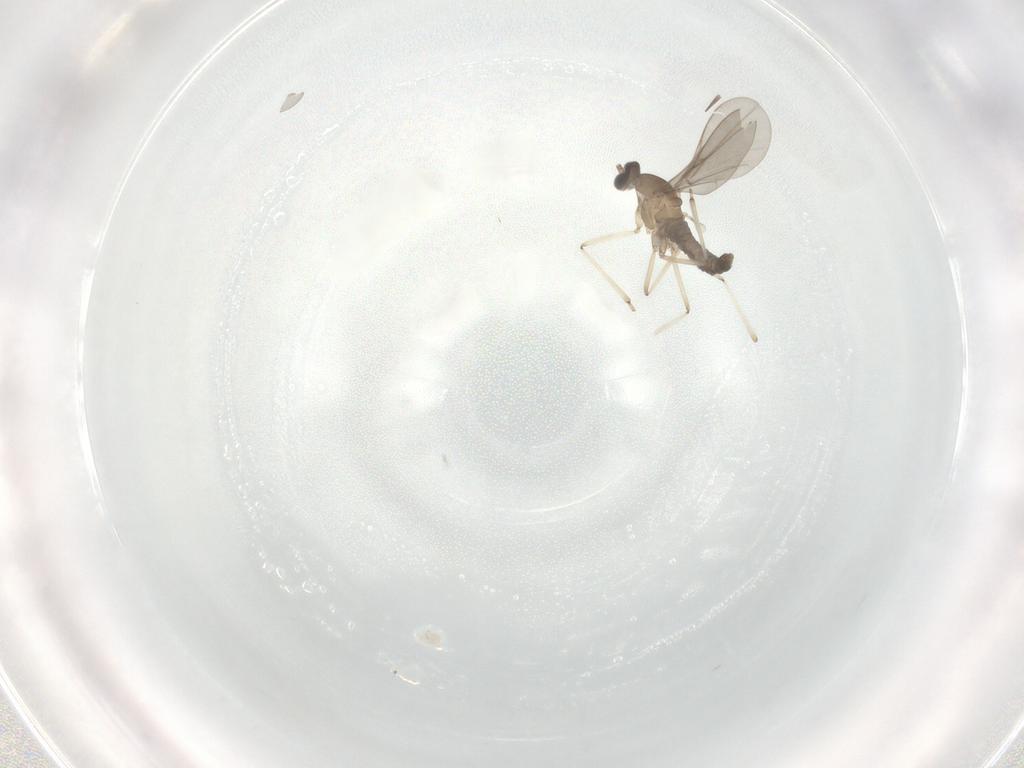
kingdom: Animalia
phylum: Arthropoda
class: Insecta
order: Diptera
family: Cecidomyiidae
